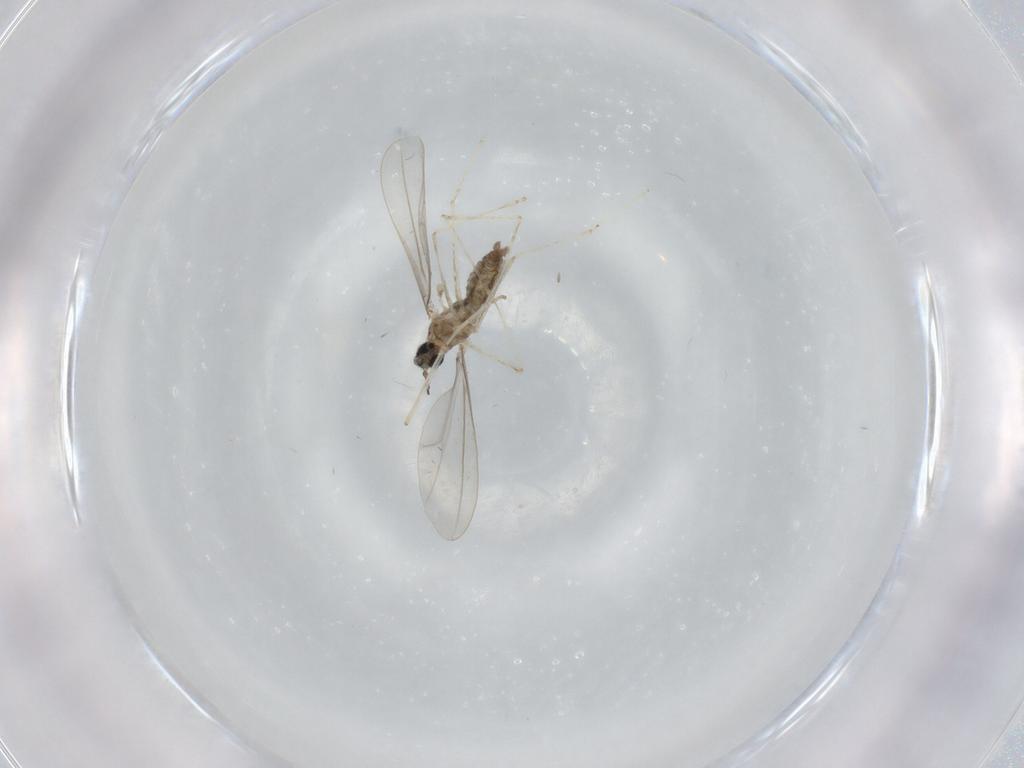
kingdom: Animalia
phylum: Arthropoda
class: Insecta
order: Diptera
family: Cecidomyiidae
